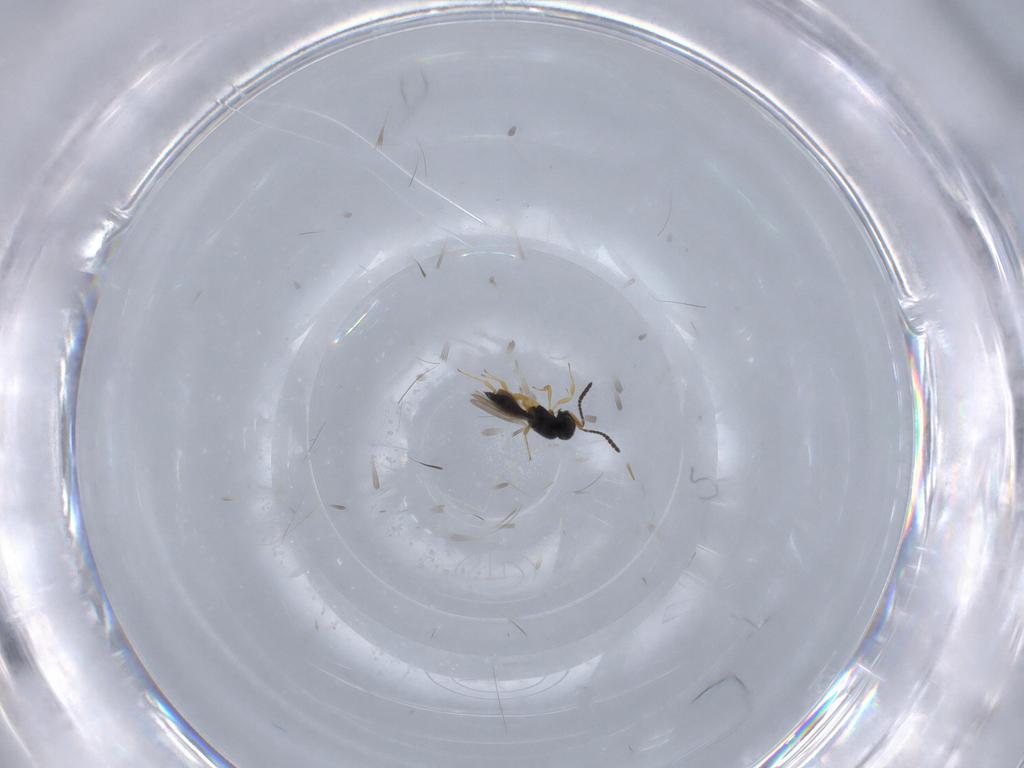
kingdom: Animalia
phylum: Arthropoda
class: Insecta
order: Hymenoptera
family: Scelionidae
